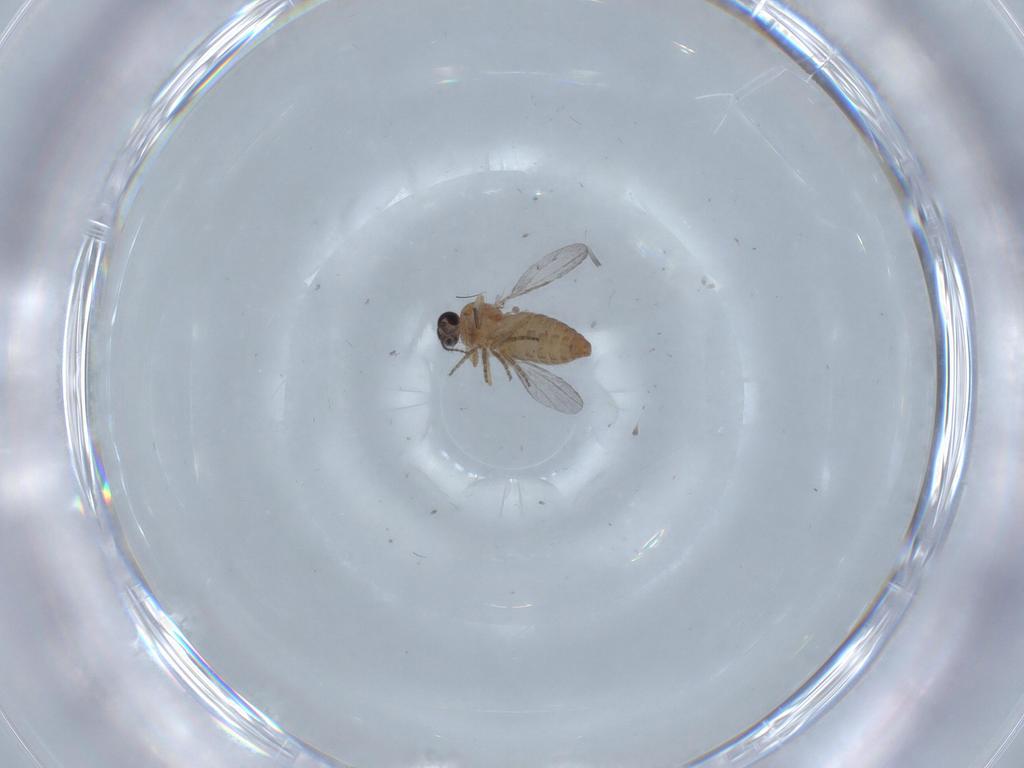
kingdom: Animalia
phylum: Arthropoda
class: Insecta
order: Diptera
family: Ceratopogonidae
